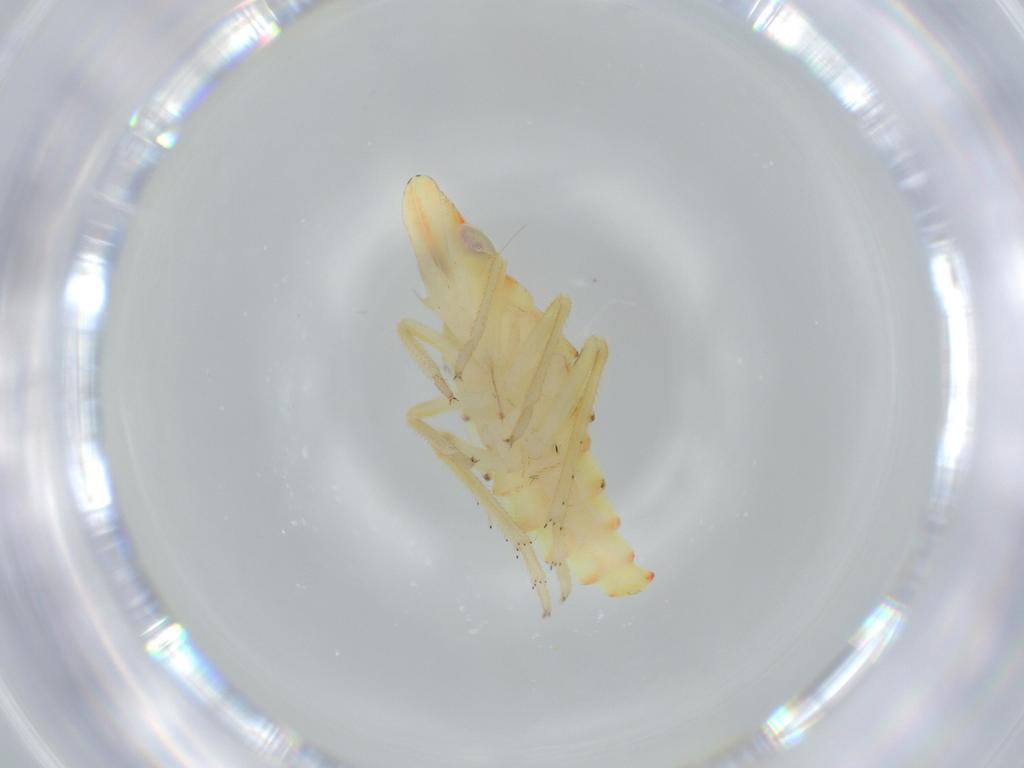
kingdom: Animalia
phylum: Arthropoda
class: Insecta
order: Hemiptera
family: Tropiduchidae
